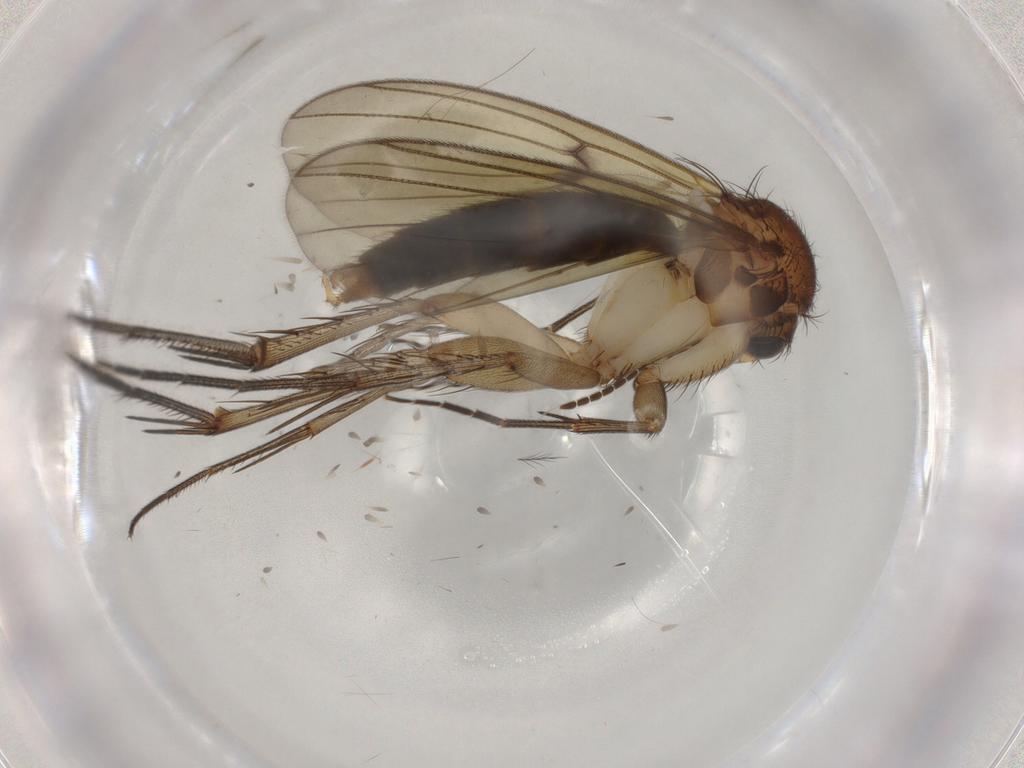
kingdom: Animalia
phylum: Arthropoda
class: Insecta
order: Diptera
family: Mycetophilidae
